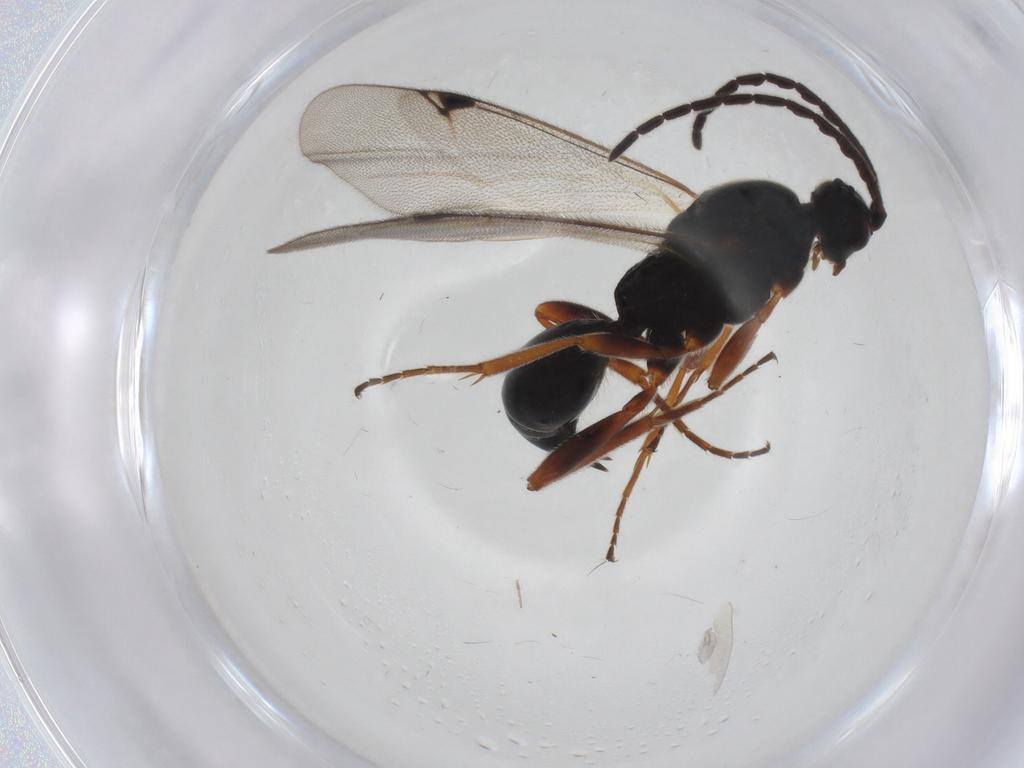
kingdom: Animalia
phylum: Arthropoda
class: Insecta
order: Hymenoptera
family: Proctotrupidae
